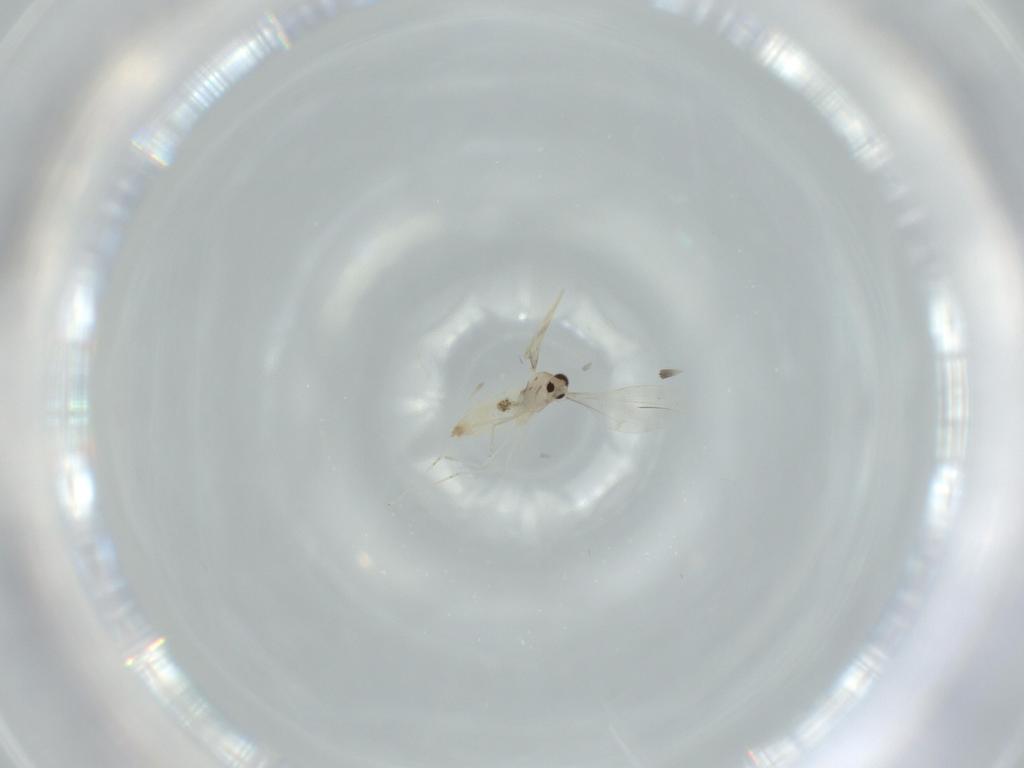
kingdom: Animalia
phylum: Arthropoda
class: Insecta
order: Diptera
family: Cecidomyiidae
